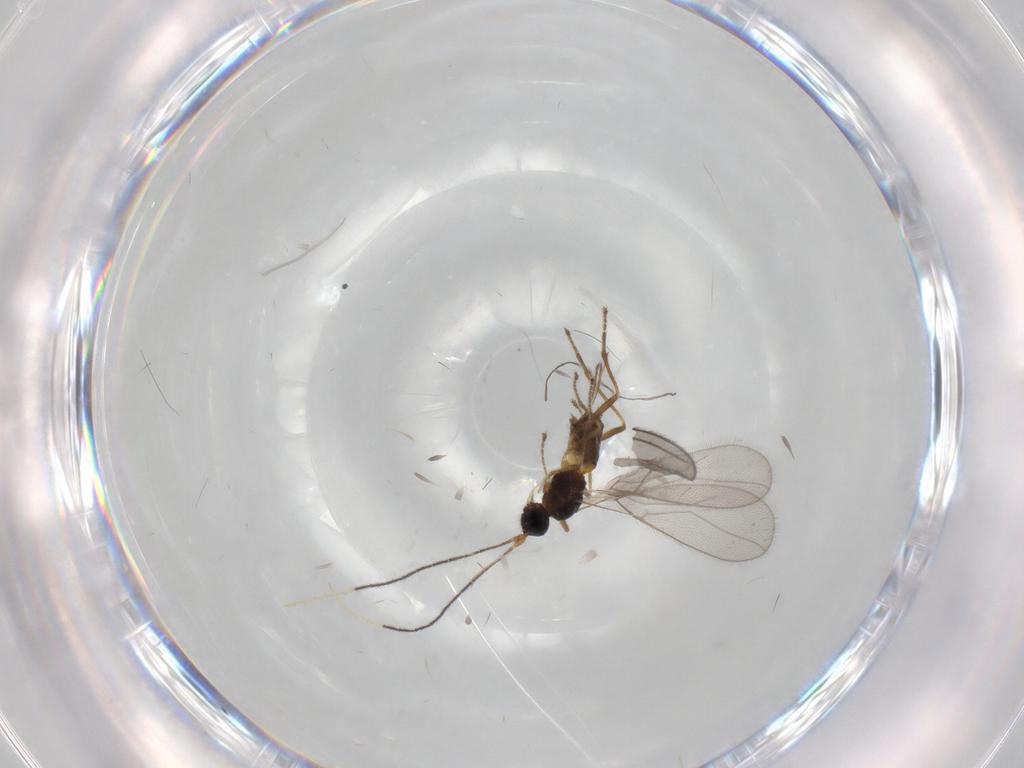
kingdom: Animalia
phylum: Arthropoda
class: Insecta
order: Hymenoptera
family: Braconidae
